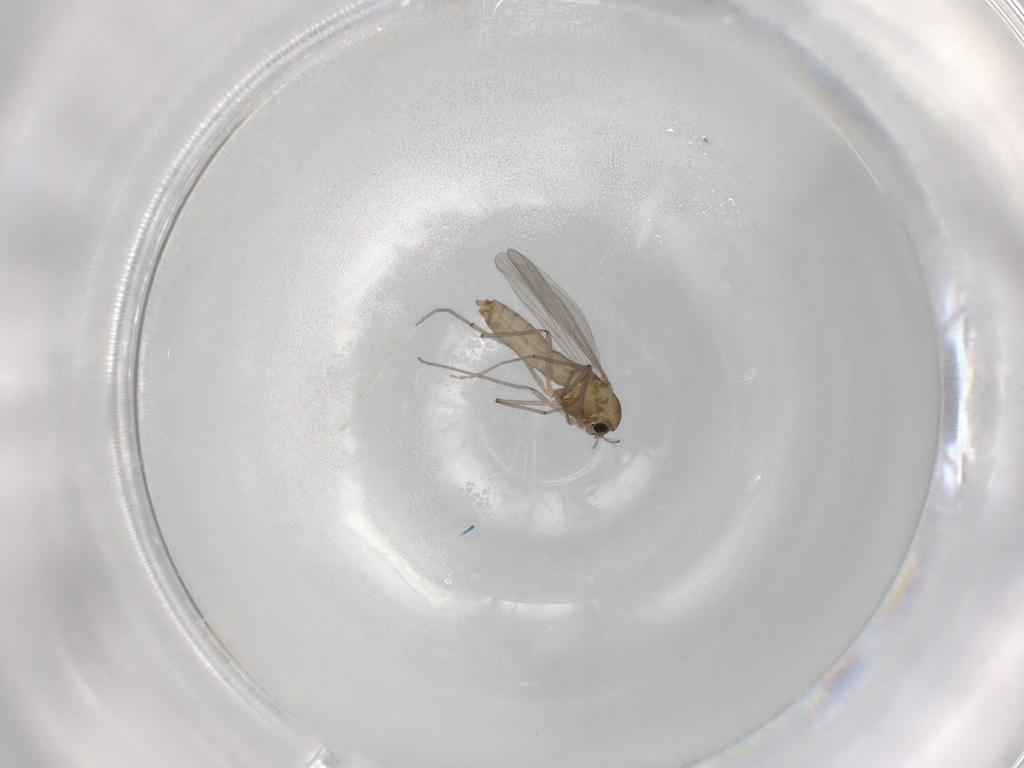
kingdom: Animalia
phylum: Arthropoda
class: Insecta
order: Diptera
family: Chironomidae
